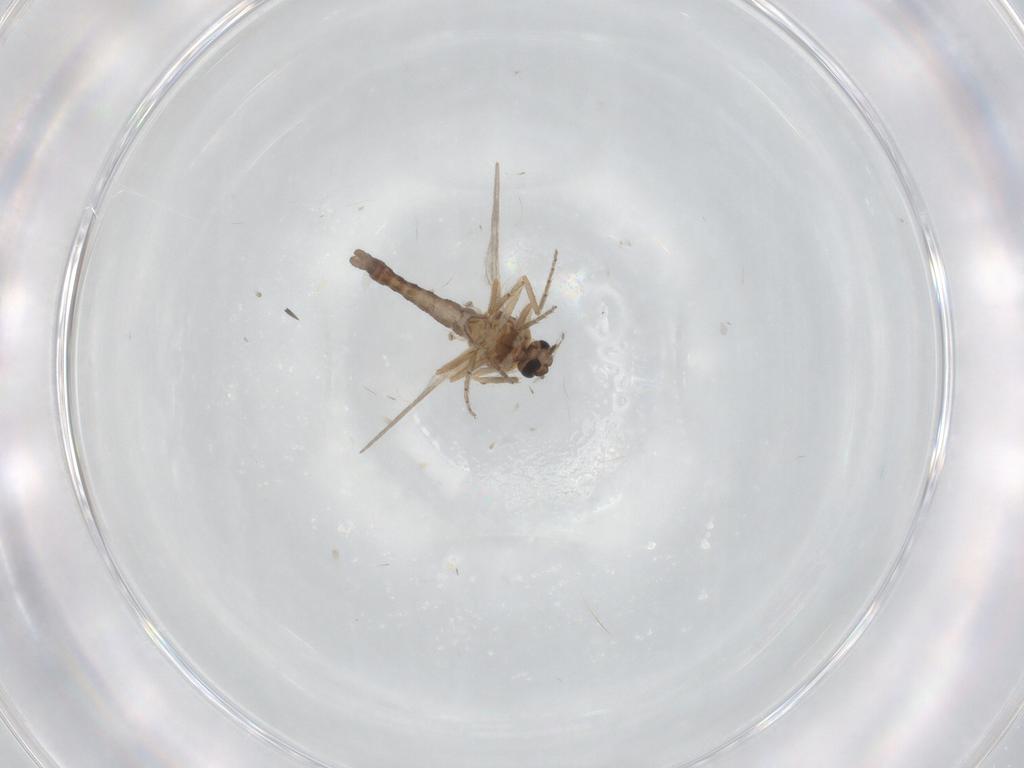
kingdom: Animalia
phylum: Arthropoda
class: Insecta
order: Diptera
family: Ceratopogonidae
